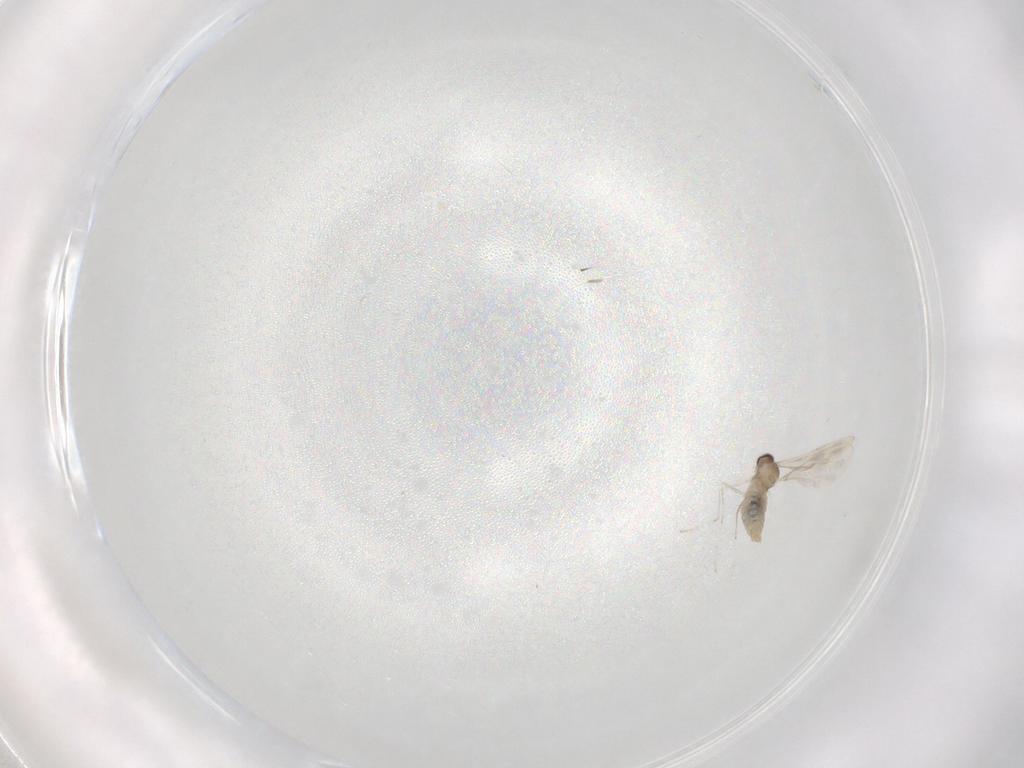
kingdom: Animalia
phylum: Arthropoda
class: Insecta
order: Diptera
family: Cecidomyiidae
